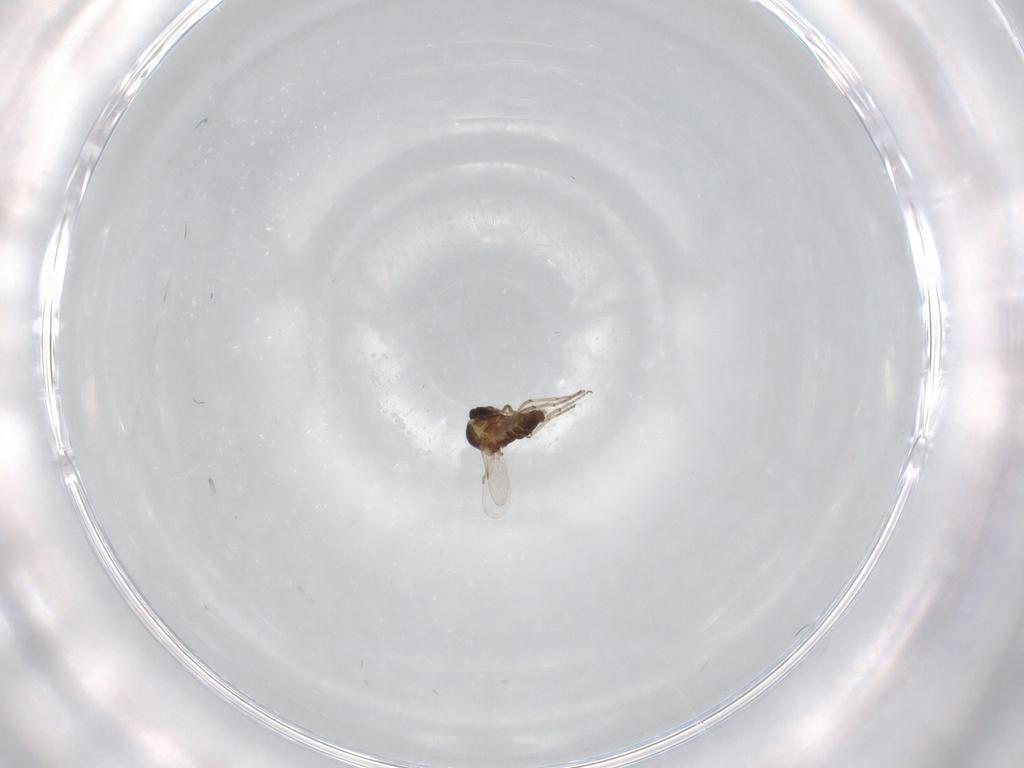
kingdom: Animalia
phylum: Arthropoda
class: Insecta
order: Diptera
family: Ceratopogonidae
